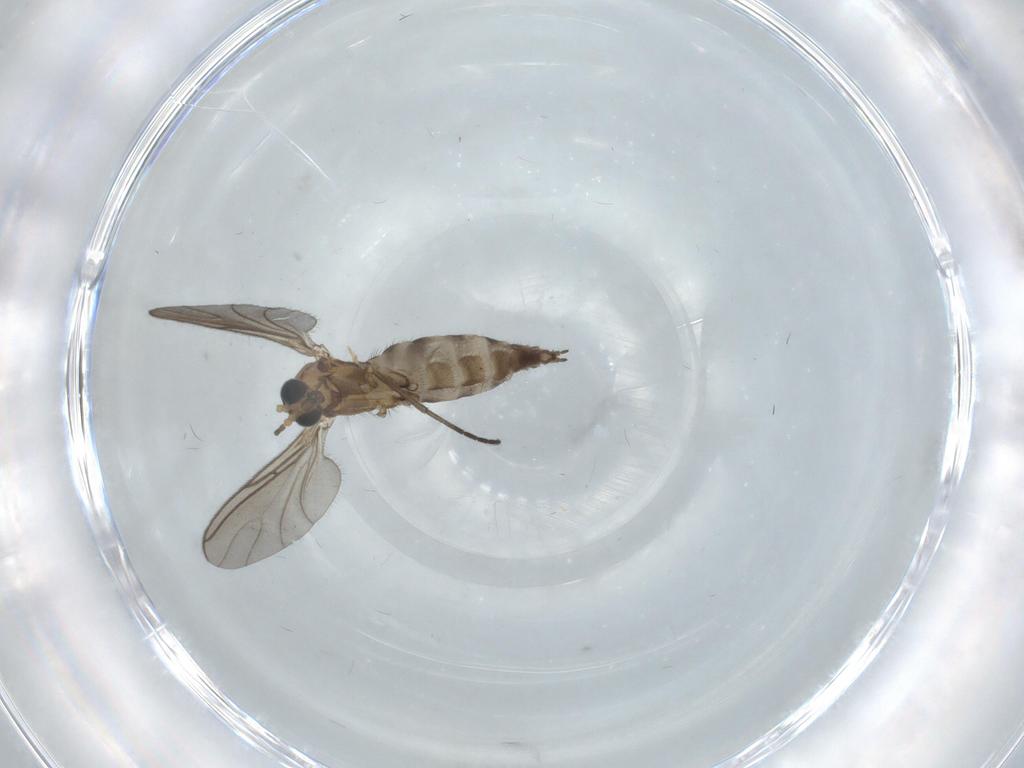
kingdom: Animalia
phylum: Arthropoda
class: Insecta
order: Diptera
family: Sciaridae
